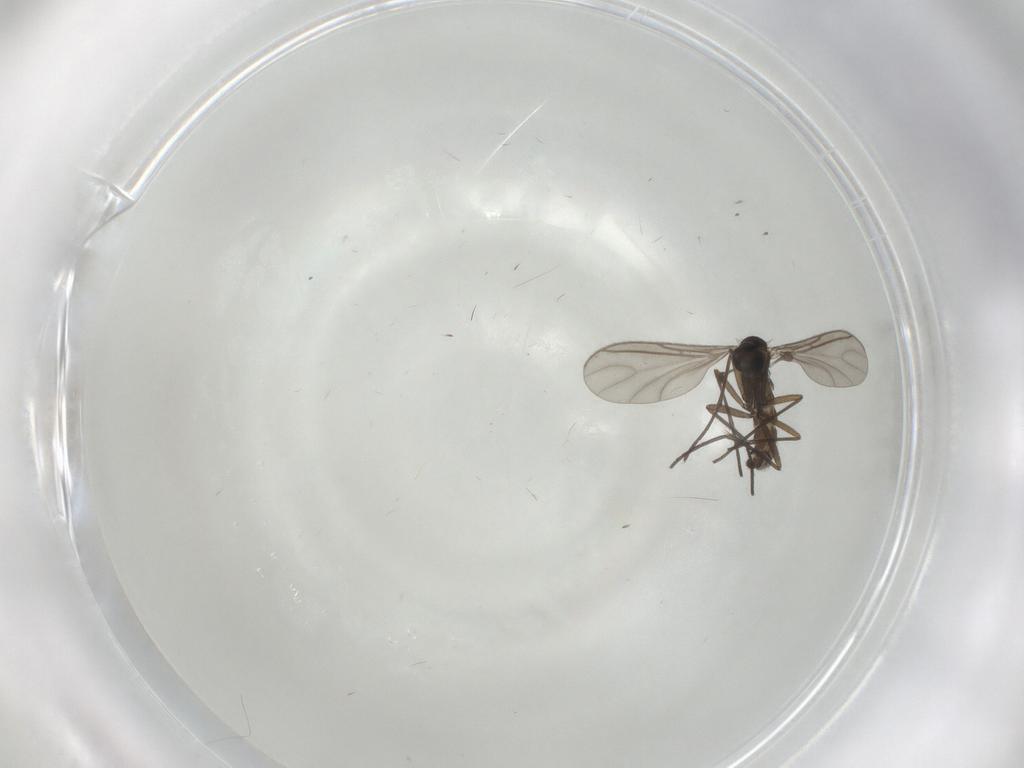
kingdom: Animalia
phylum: Arthropoda
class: Insecta
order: Diptera
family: Sciaridae
